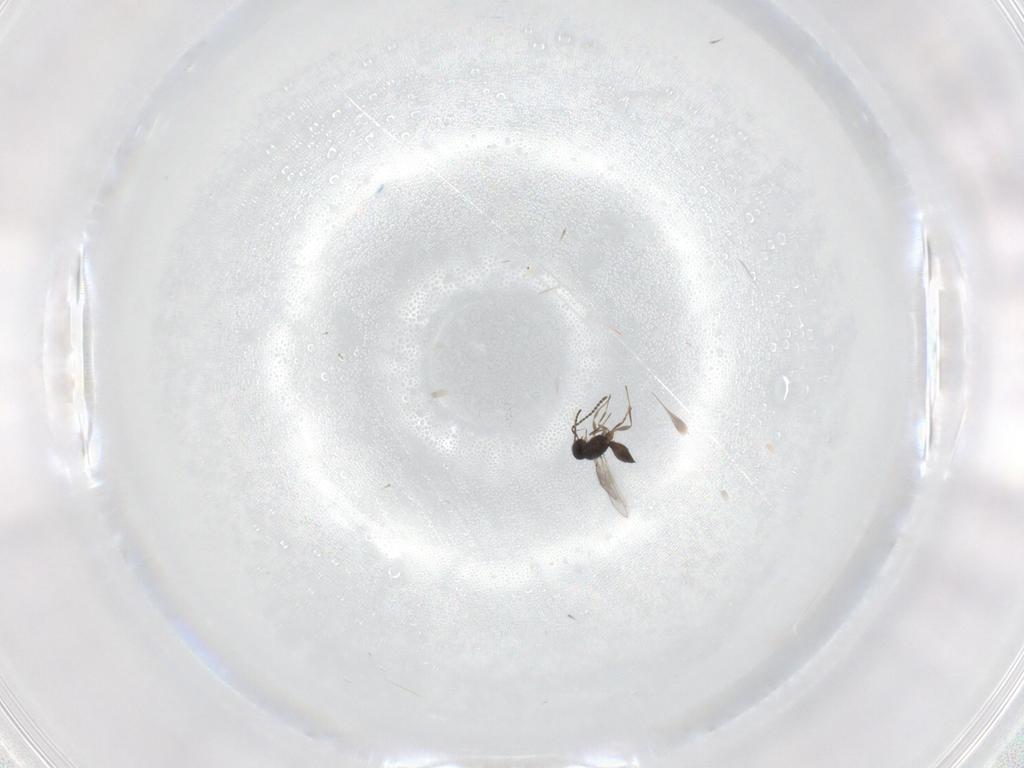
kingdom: Animalia
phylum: Arthropoda
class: Insecta
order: Hymenoptera
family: Scelionidae
